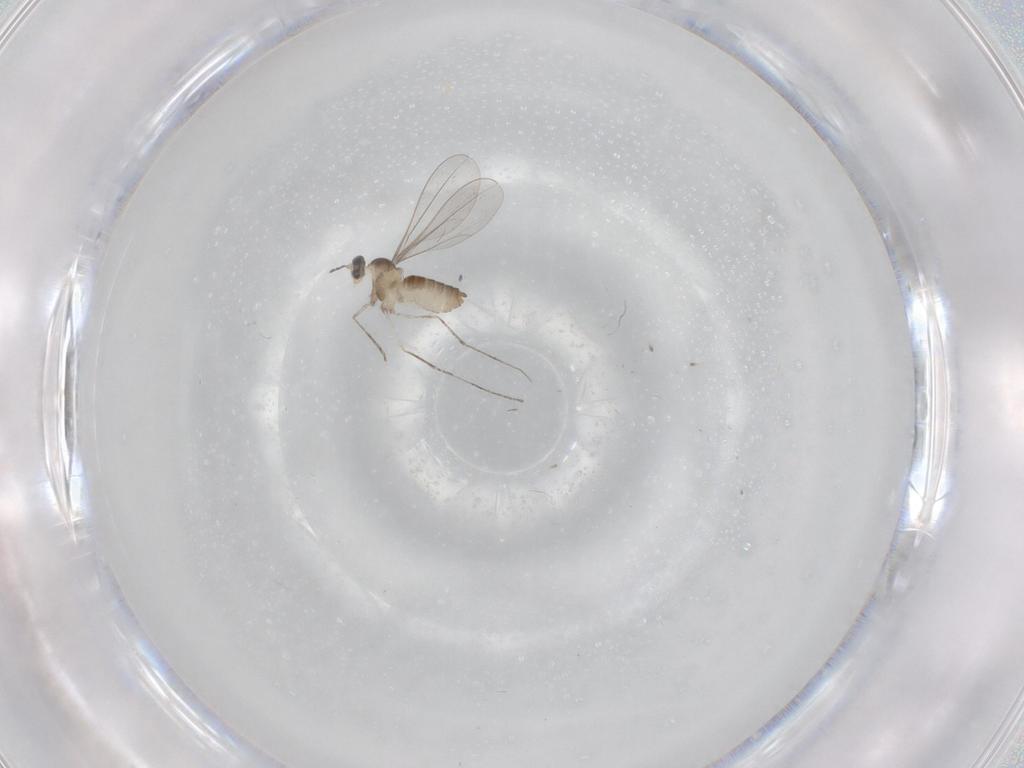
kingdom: Animalia
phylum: Arthropoda
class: Insecta
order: Diptera
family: Cecidomyiidae
